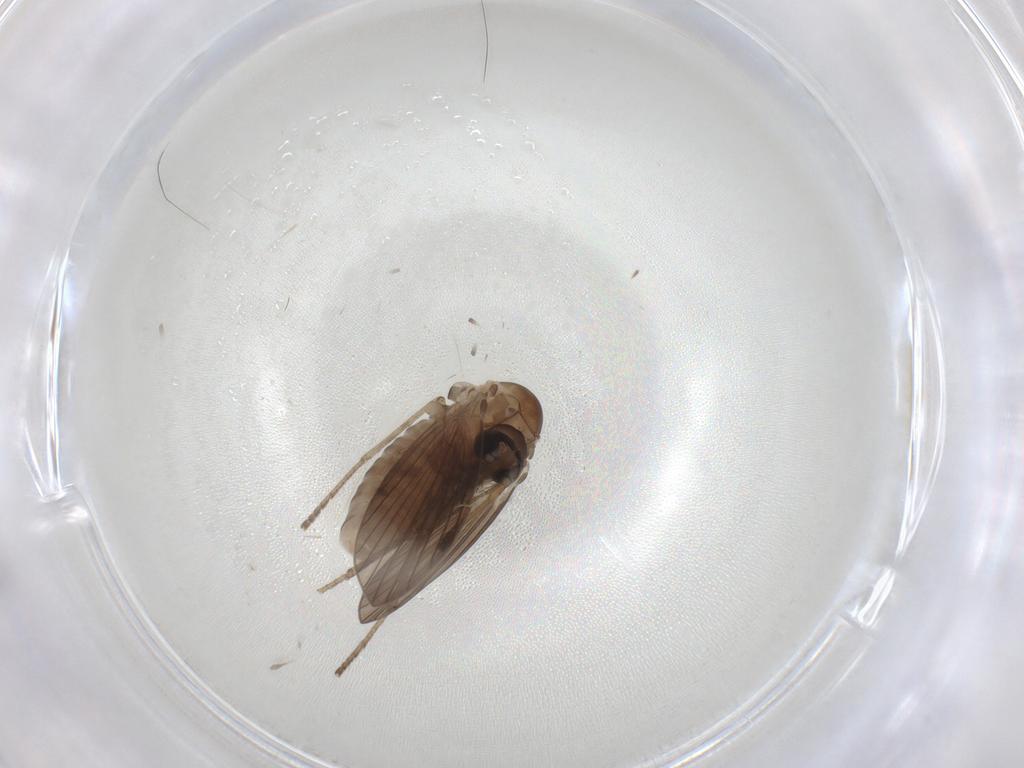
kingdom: Animalia
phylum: Arthropoda
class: Insecta
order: Diptera
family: Psychodidae
